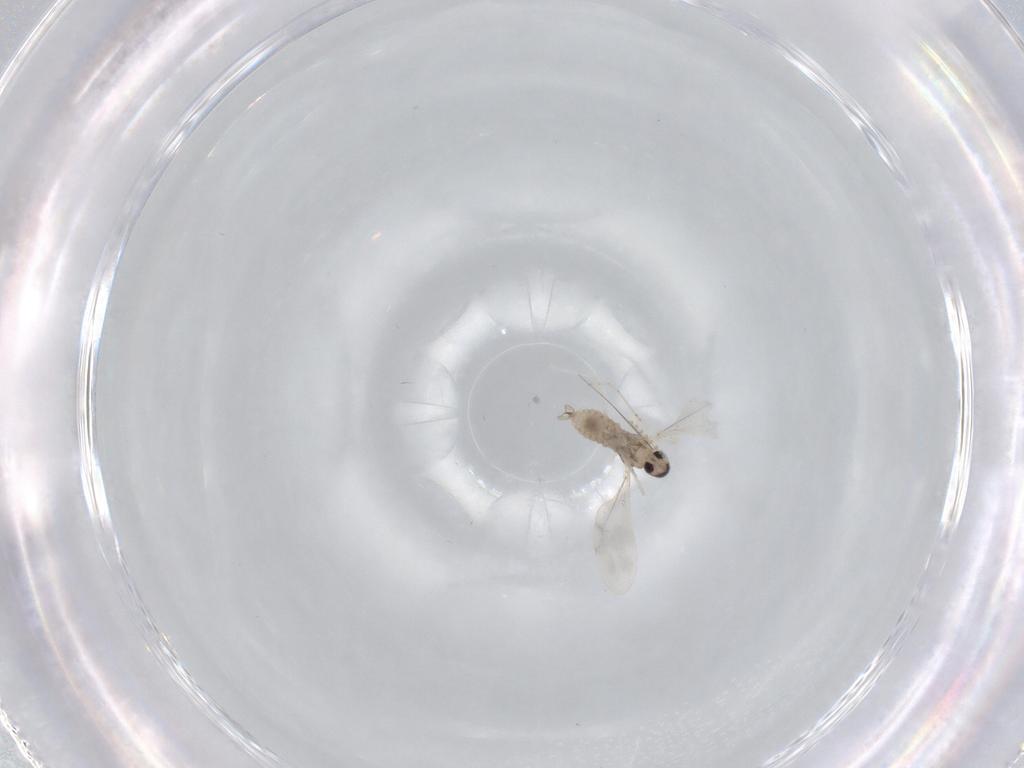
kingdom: Animalia
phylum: Arthropoda
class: Insecta
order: Diptera
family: Cecidomyiidae
